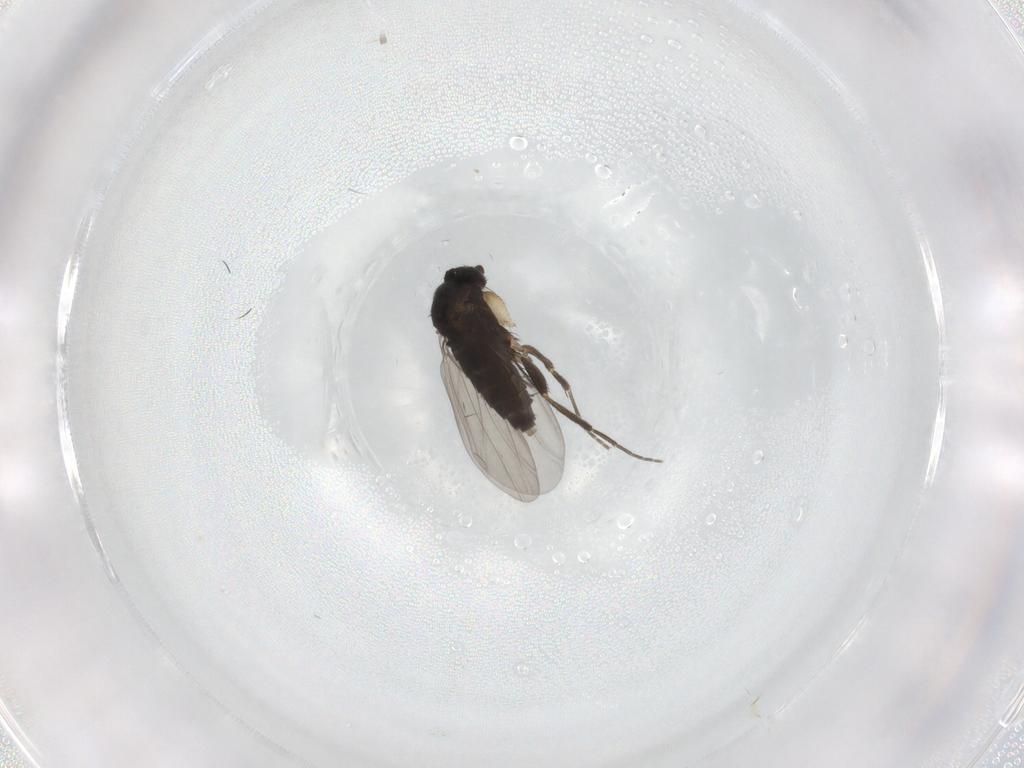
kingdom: Animalia
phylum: Arthropoda
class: Insecta
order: Diptera
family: Phoridae
